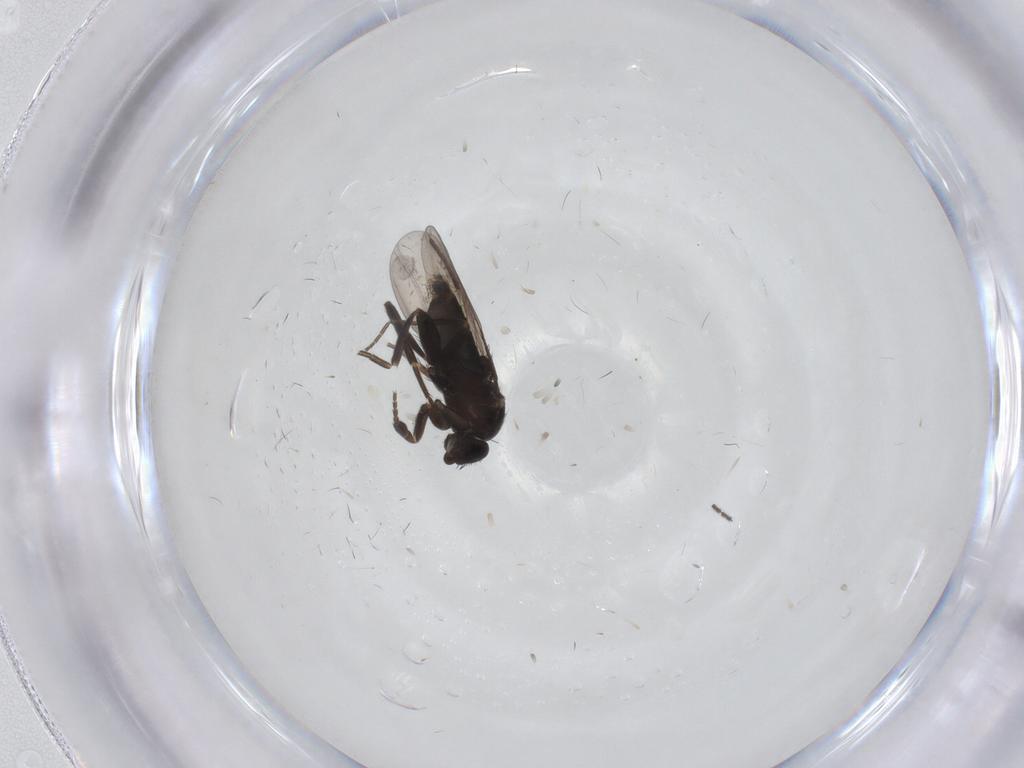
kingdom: Animalia
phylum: Arthropoda
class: Insecta
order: Diptera
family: Phoridae
